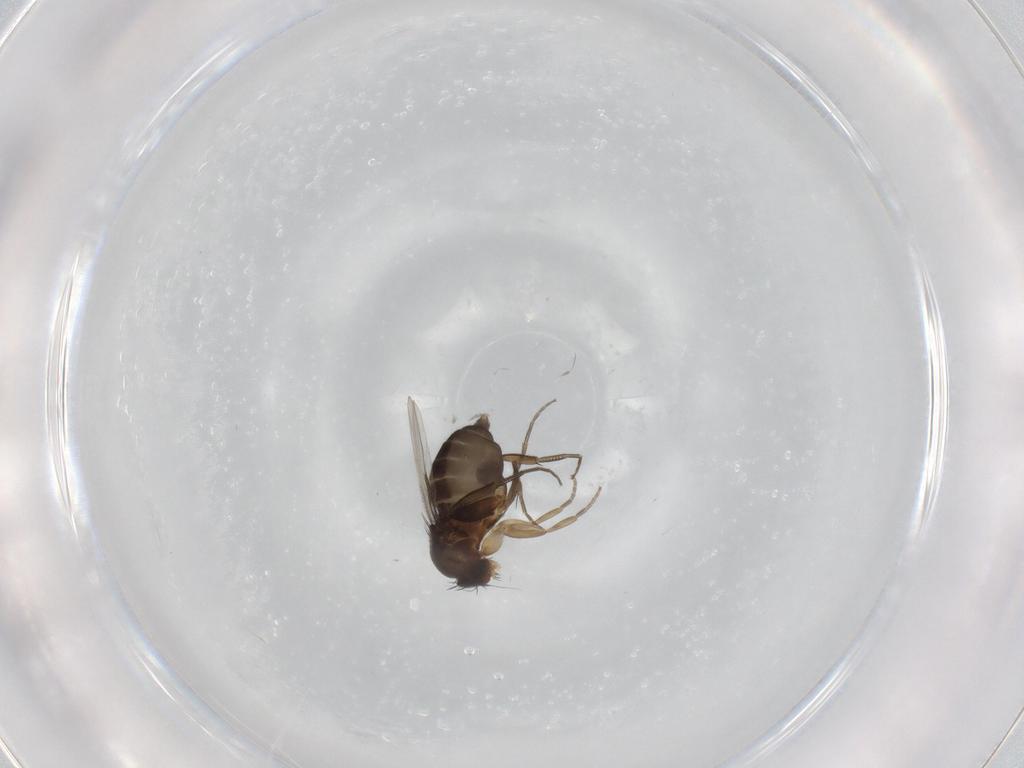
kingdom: Animalia
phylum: Arthropoda
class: Insecta
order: Diptera
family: Phoridae
